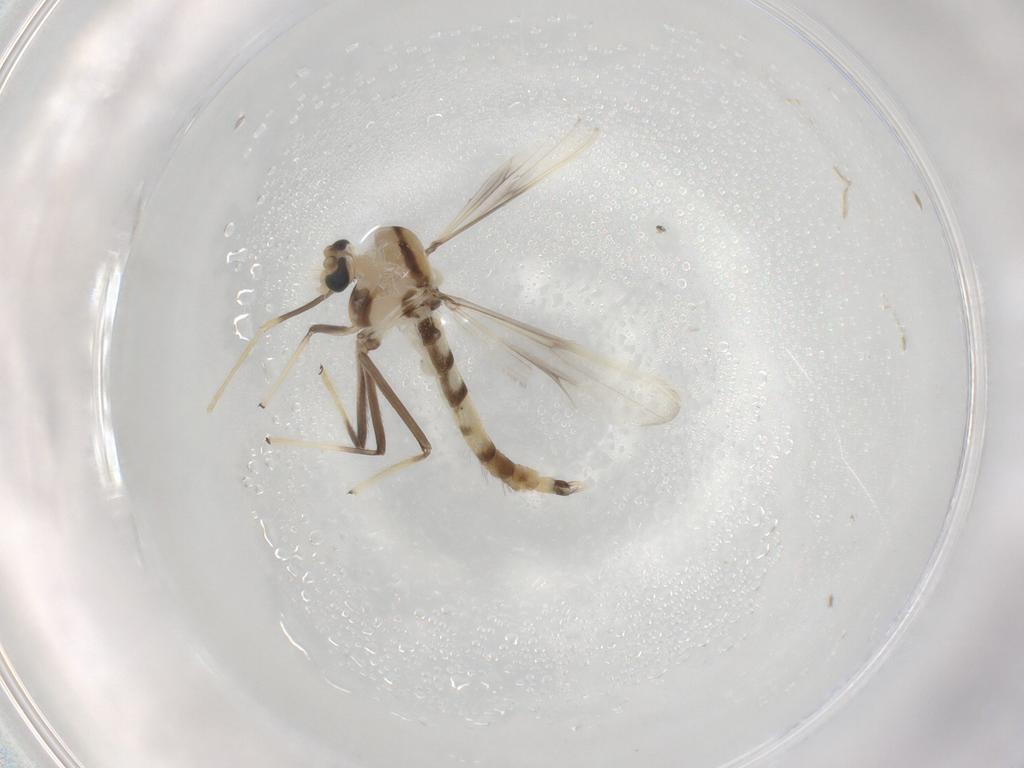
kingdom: Animalia
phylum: Arthropoda
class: Insecta
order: Diptera
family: Chironomidae
